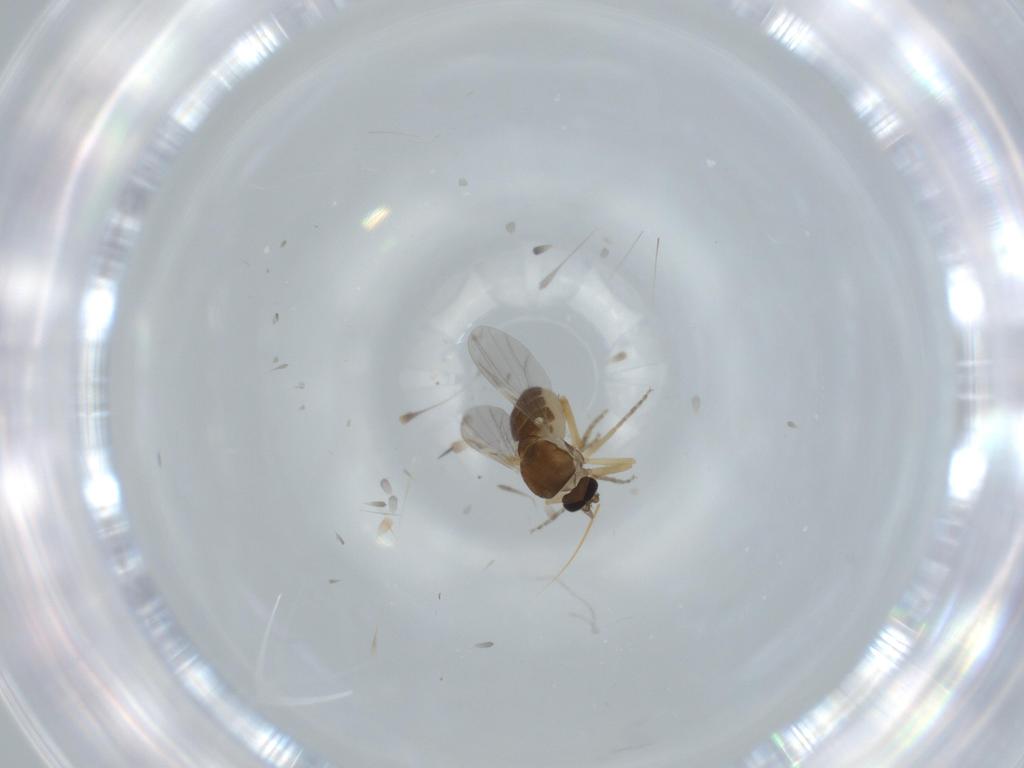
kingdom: Animalia
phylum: Arthropoda
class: Insecta
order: Diptera
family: Ceratopogonidae
